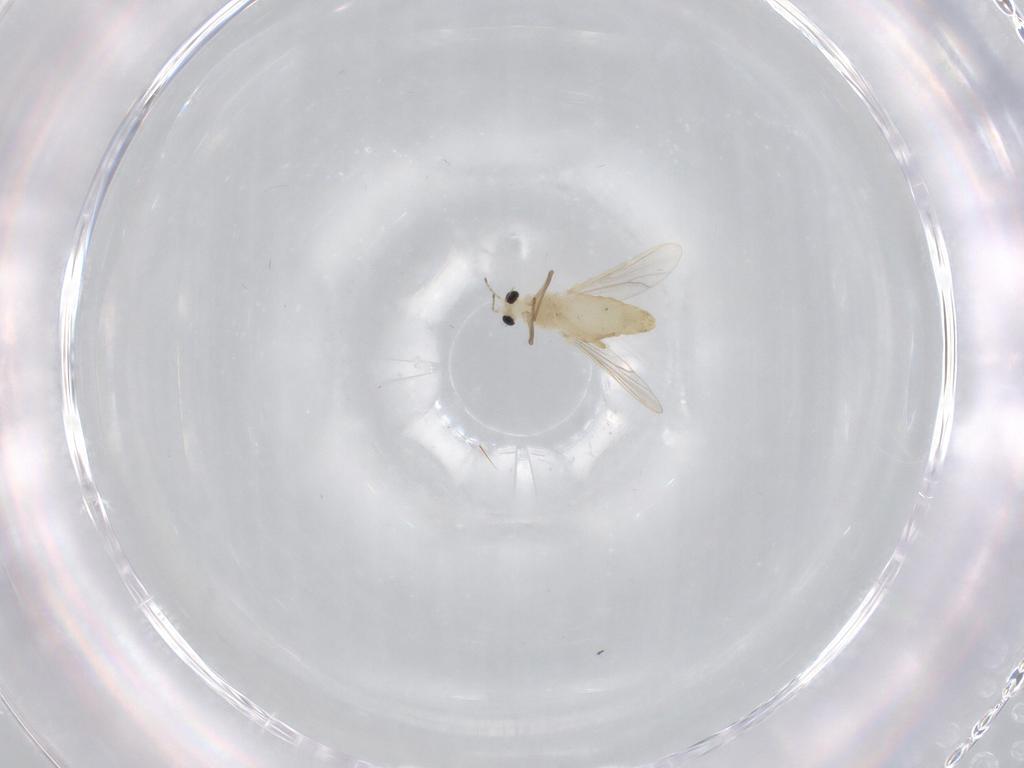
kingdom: Animalia
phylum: Arthropoda
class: Insecta
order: Diptera
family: Chironomidae
